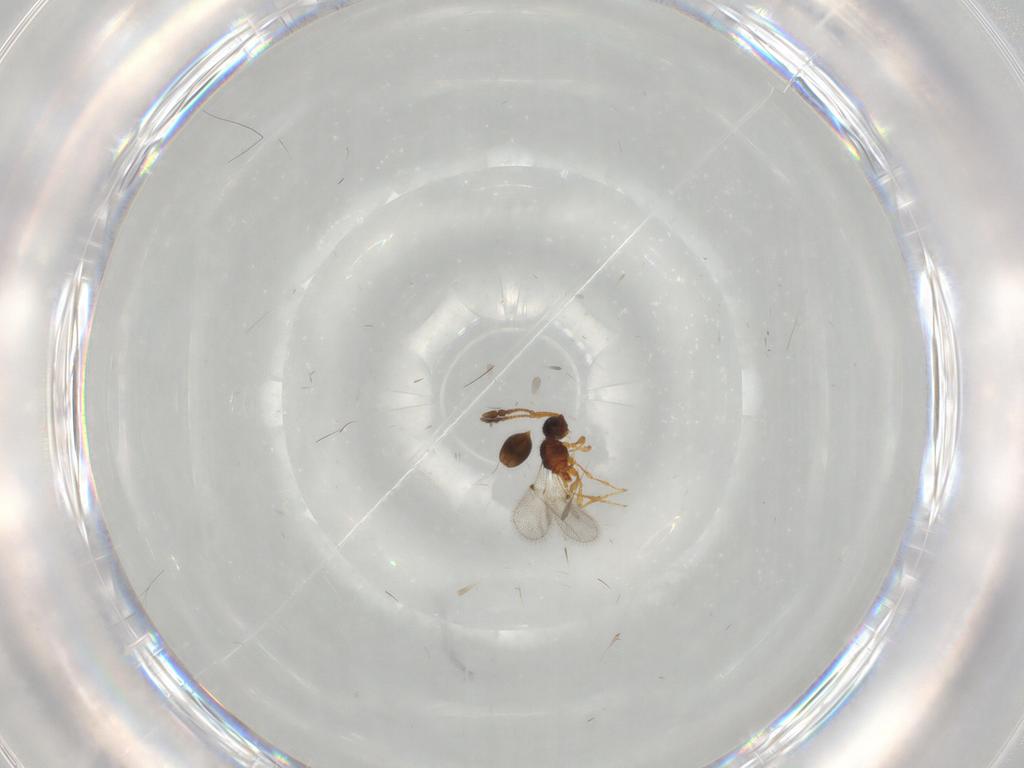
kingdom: Animalia
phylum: Arthropoda
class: Insecta
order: Hymenoptera
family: Diapriidae
